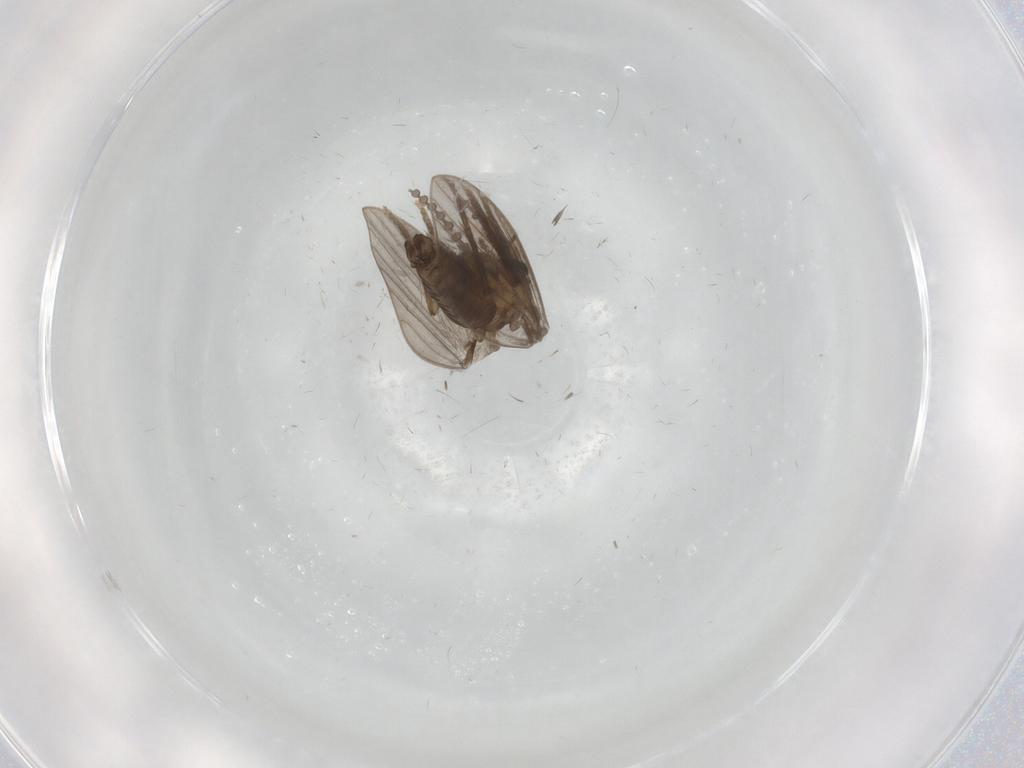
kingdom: Animalia
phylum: Arthropoda
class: Insecta
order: Diptera
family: Psychodidae
